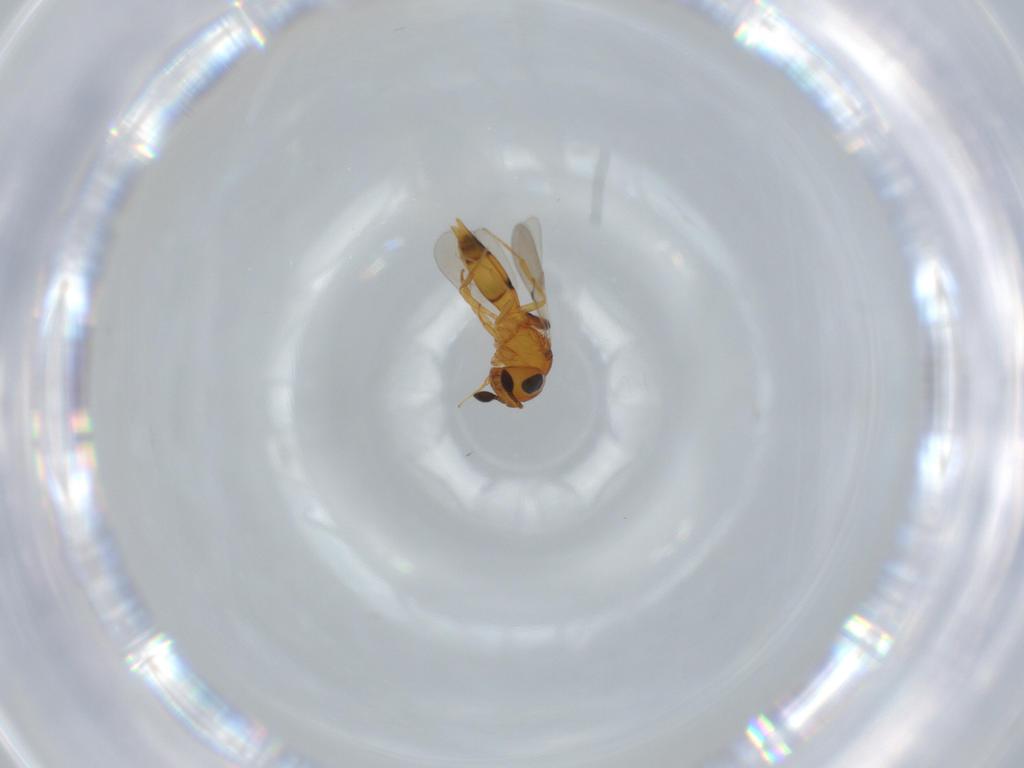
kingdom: Animalia
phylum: Arthropoda
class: Insecta
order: Hymenoptera
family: Scelionidae
